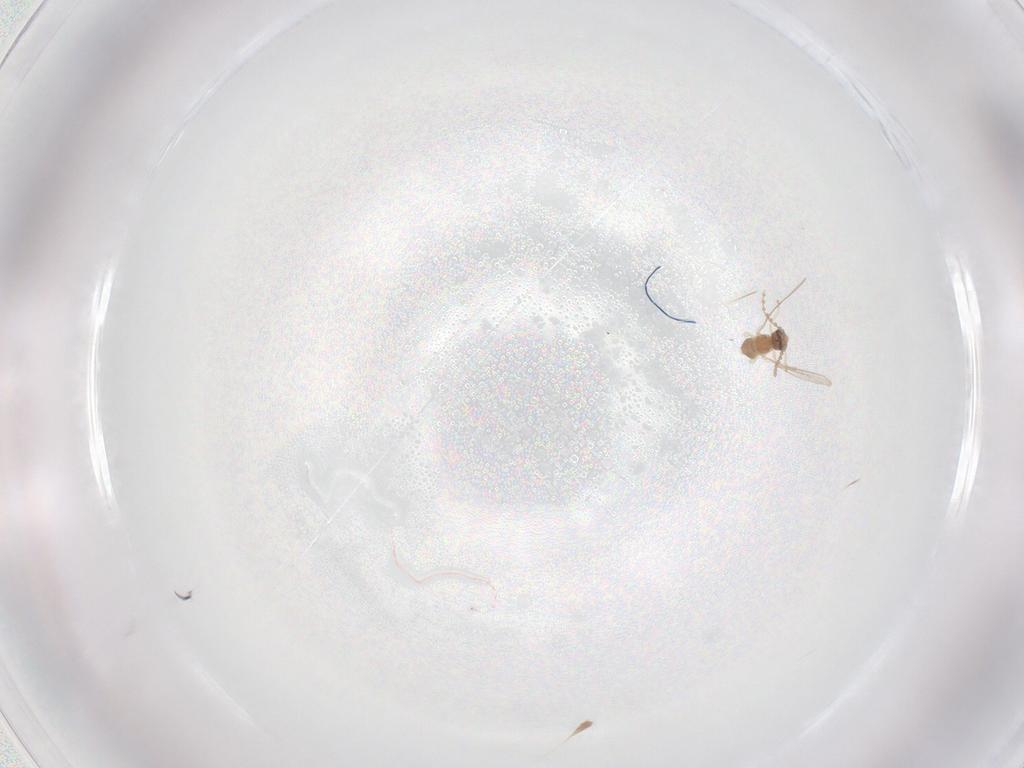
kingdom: Animalia
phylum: Arthropoda
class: Insecta
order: Diptera
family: Cecidomyiidae
